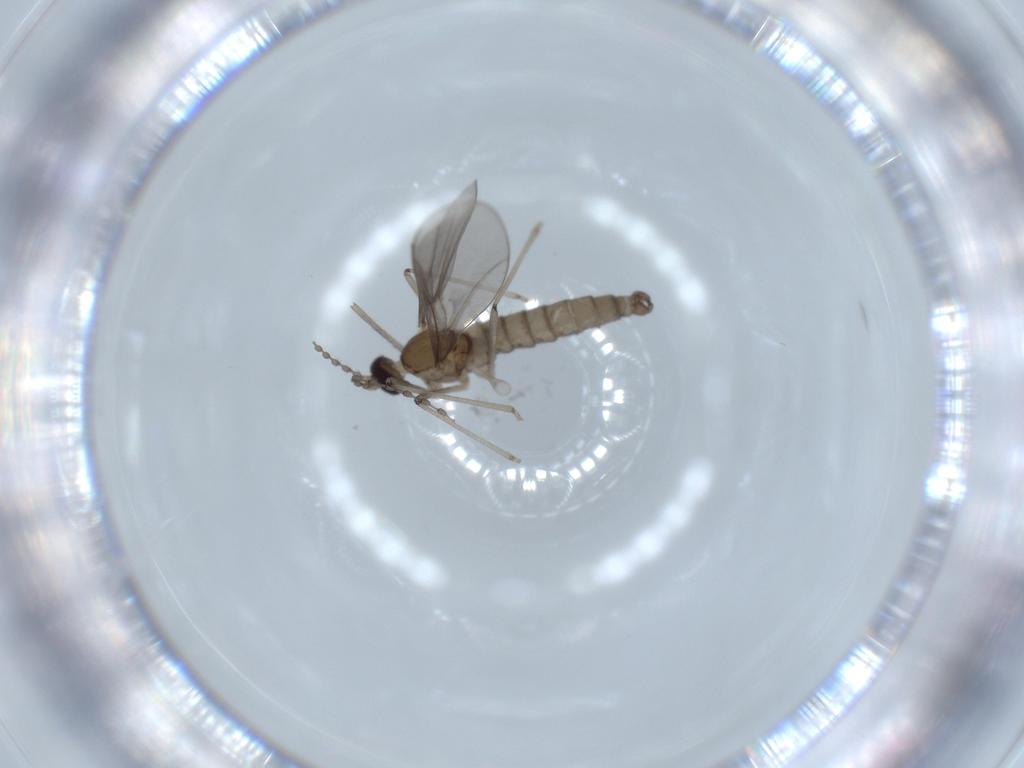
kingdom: Animalia
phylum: Arthropoda
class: Insecta
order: Diptera
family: Cecidomyiidae
